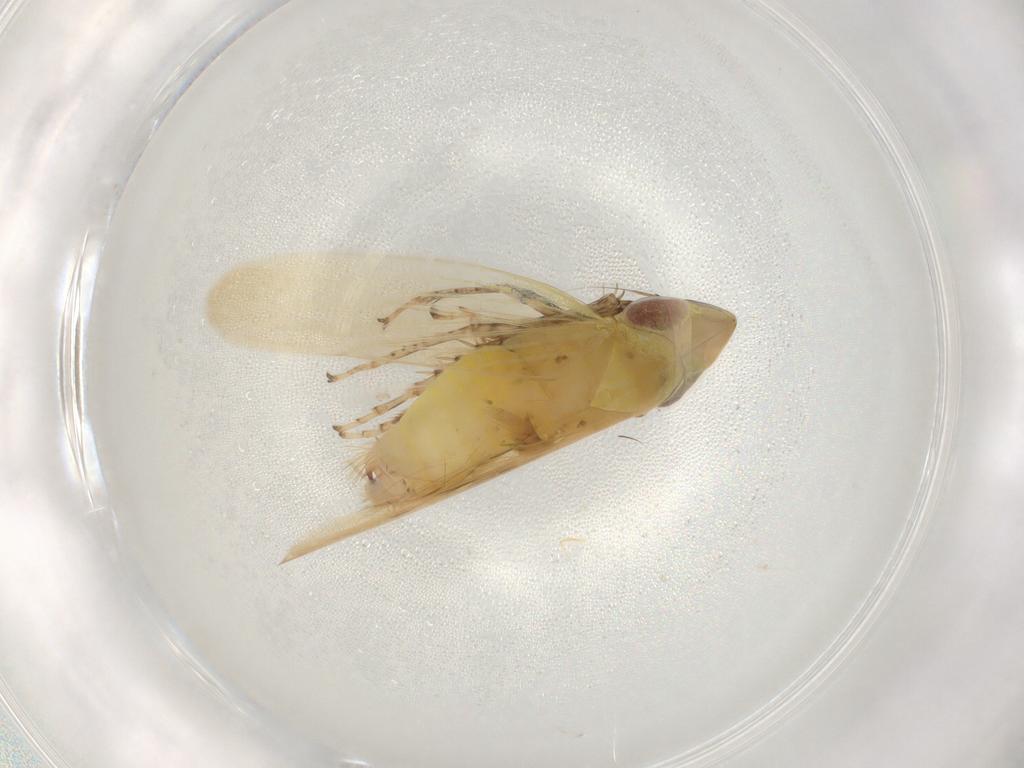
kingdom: Animalia
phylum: Arthropoda
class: Insecta
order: Hemiptera
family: Cicadellidae
